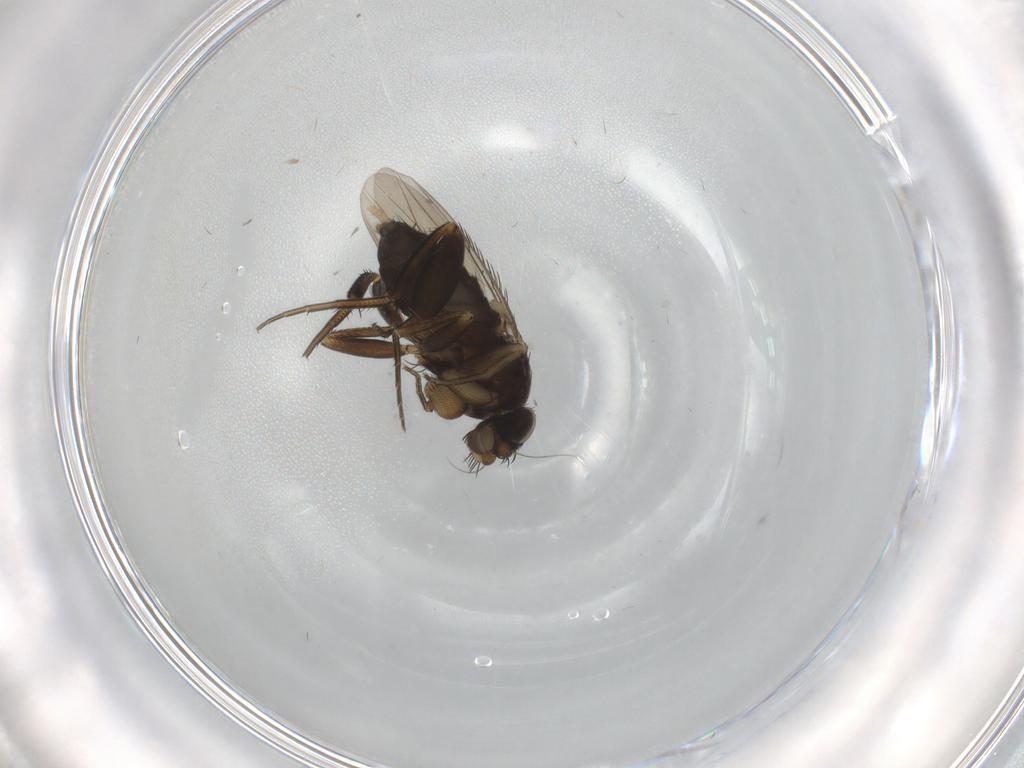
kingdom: Animalia
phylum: Arthropoda
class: Insecta
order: Diptera
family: Phoridae
